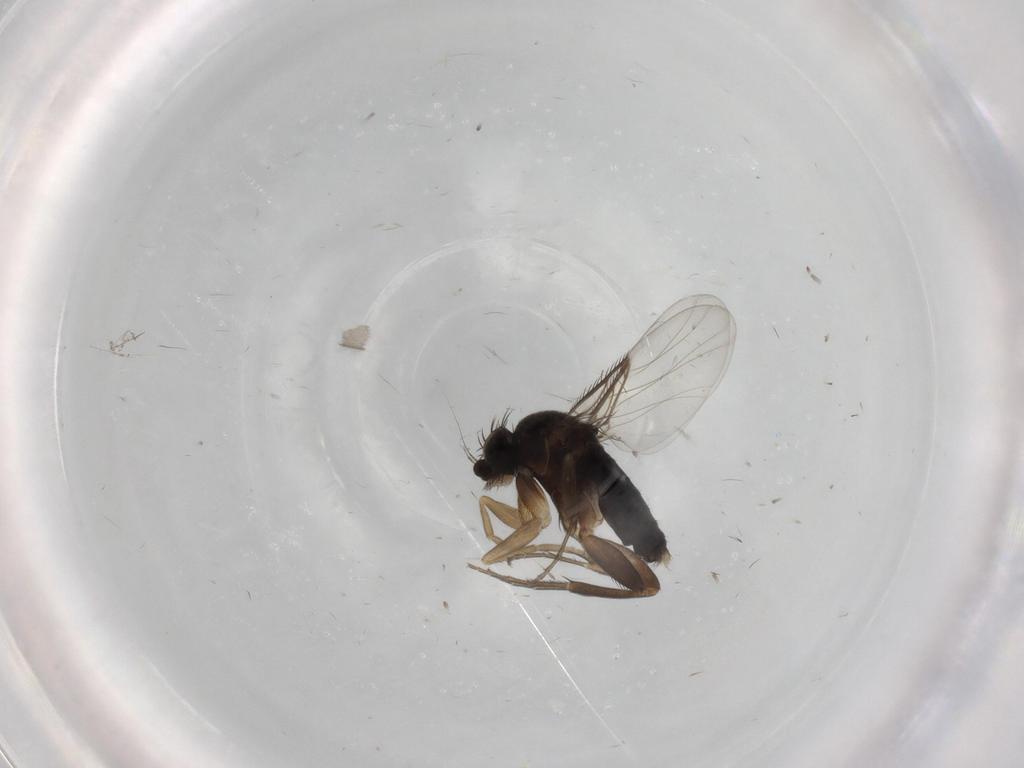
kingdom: Animalia
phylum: Arthropoda
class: Insecta
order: Diptera
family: Phoridae
